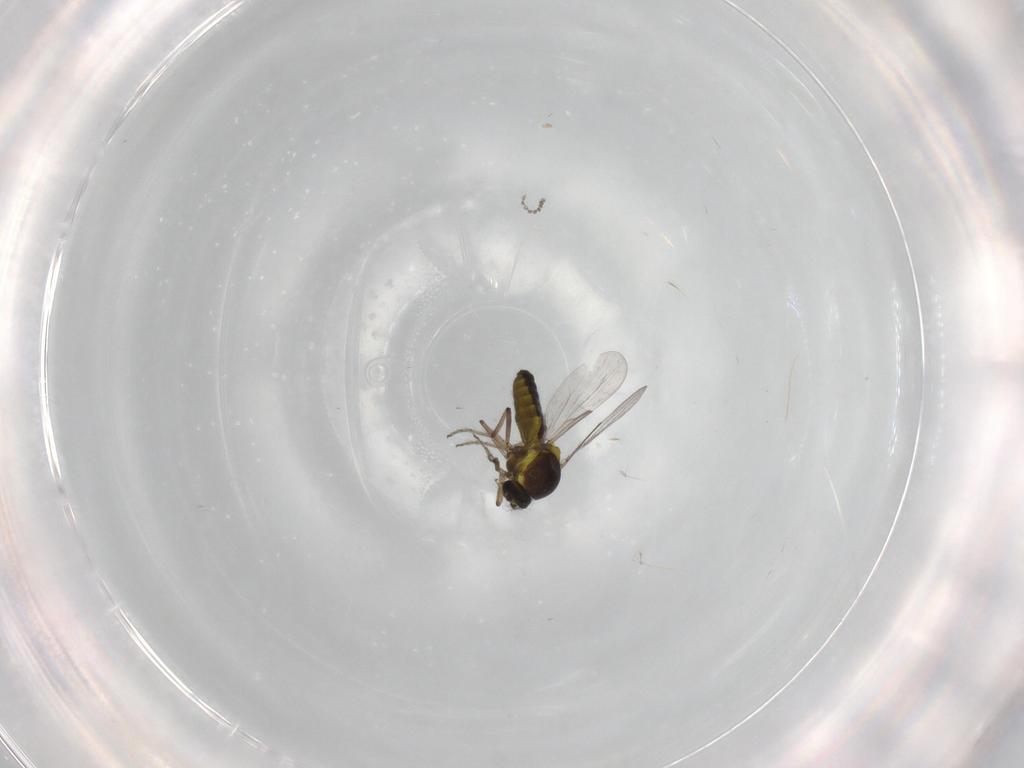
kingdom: Animalia
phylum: Arthropoda
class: Insecta
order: Diptera
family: Ceratopogonidae
